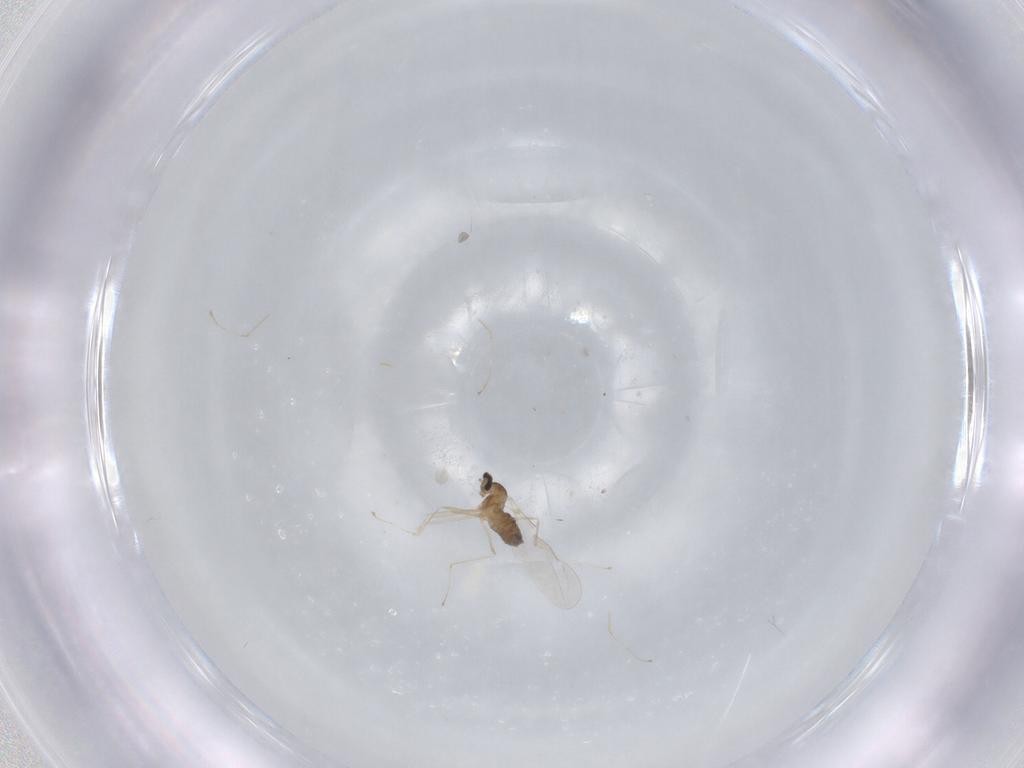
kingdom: Animalia
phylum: Arthropoda
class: Insecta
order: Diptera
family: Cecidomyiidae
